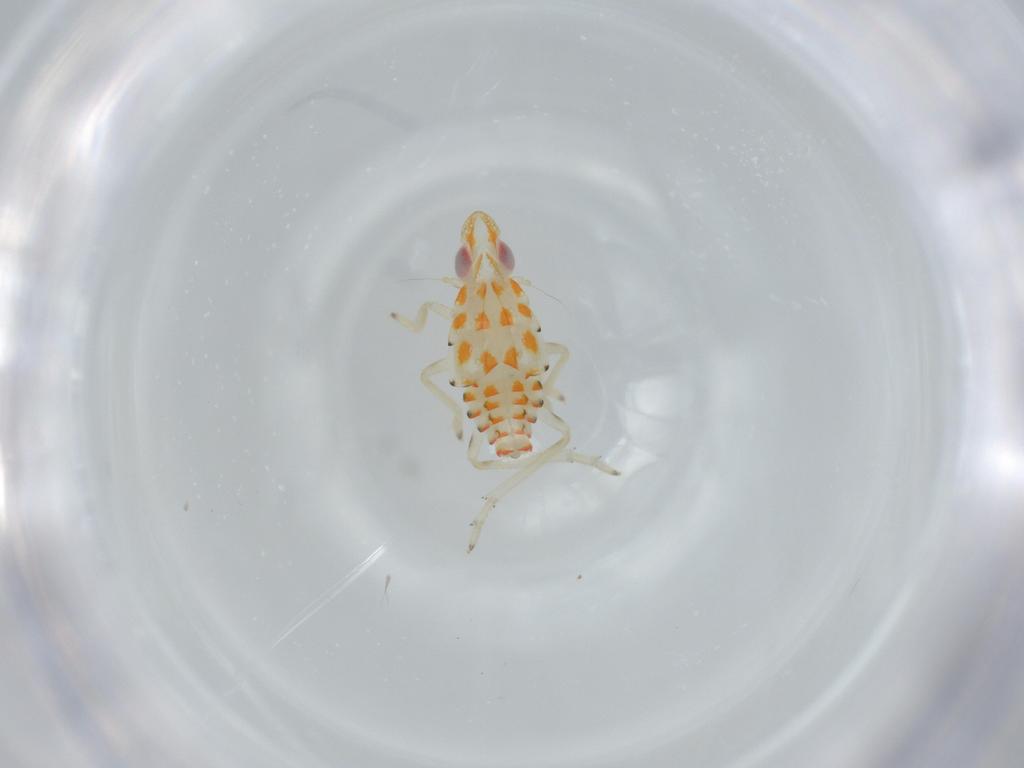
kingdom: Animalia
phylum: Arthropoda
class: Insecta
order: Hemiptera
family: Tropiduchidae
